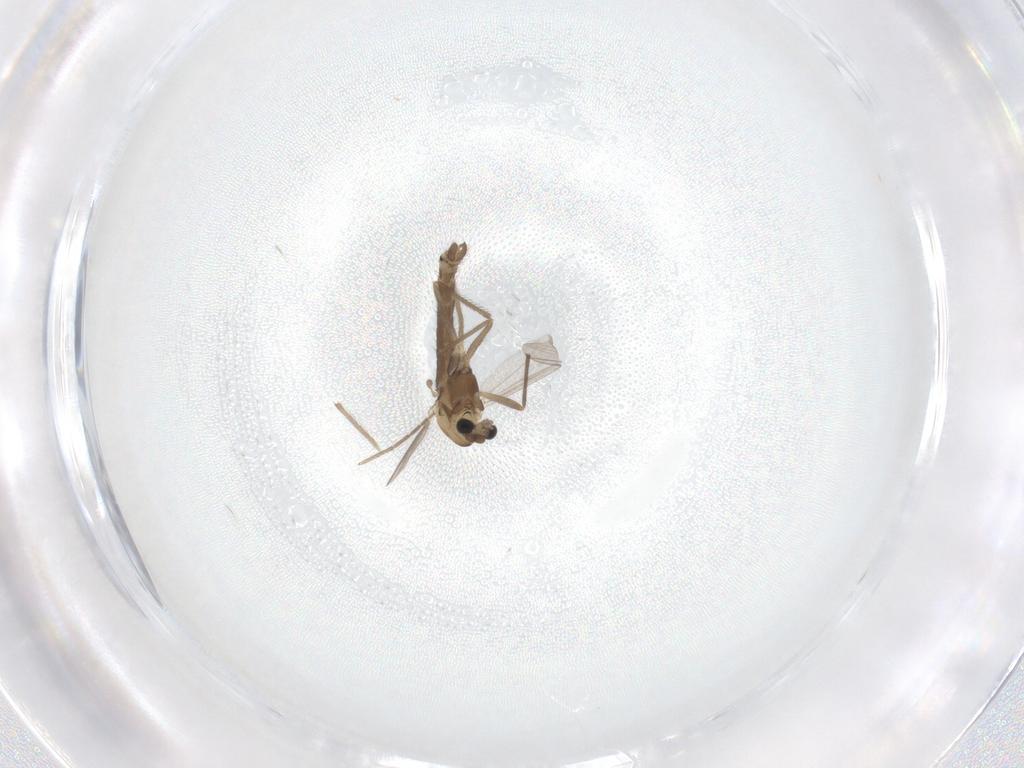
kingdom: Animalia
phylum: Arthropoda
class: Insecta
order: Diptera
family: Chironomidae
